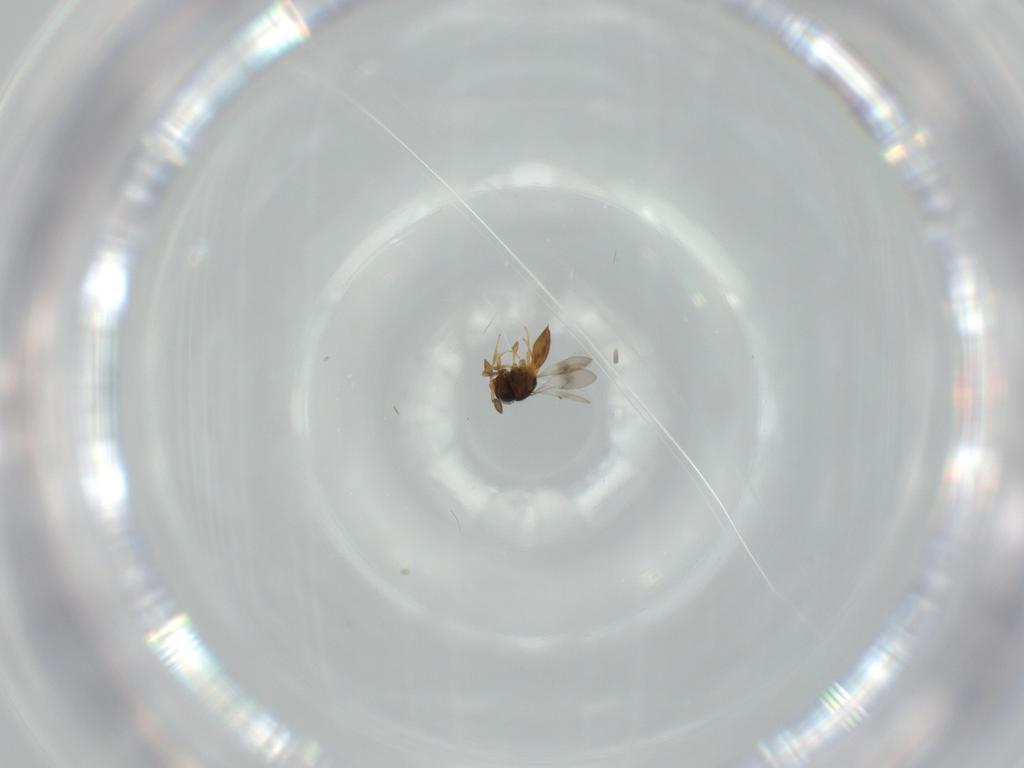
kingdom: Animalia
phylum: Arthropoda
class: Insecta
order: Hymenoptera
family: Scelionidae
